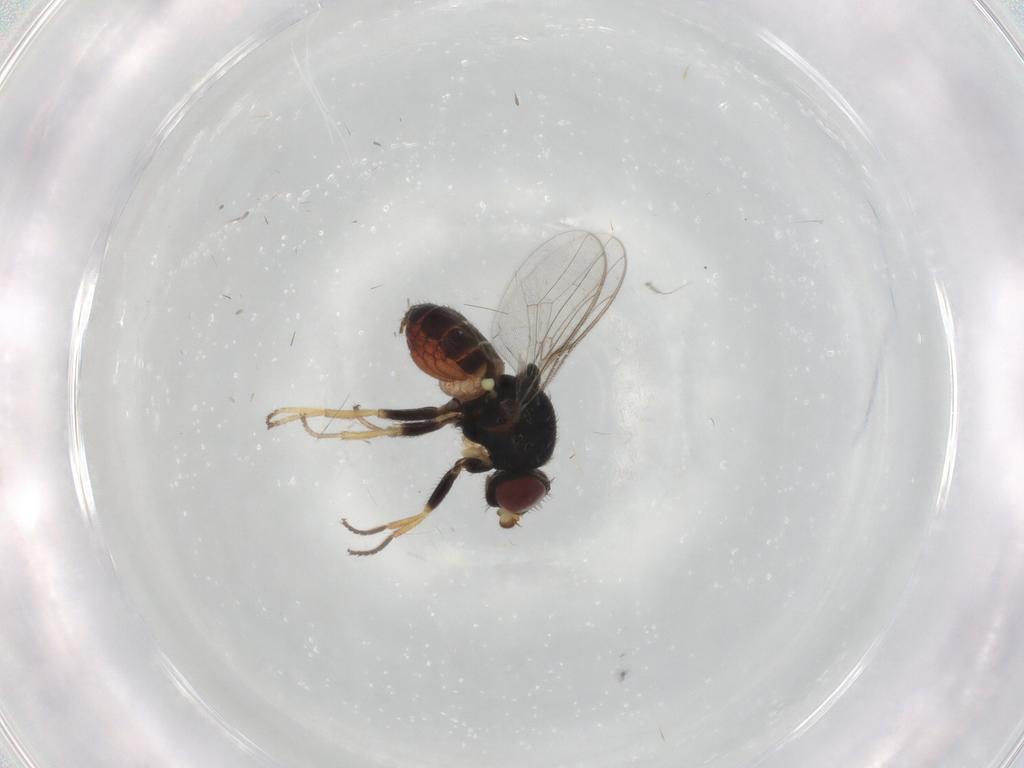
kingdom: Animalia
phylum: Arthropoda
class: Insecta
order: Diptera
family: Chloropidae
